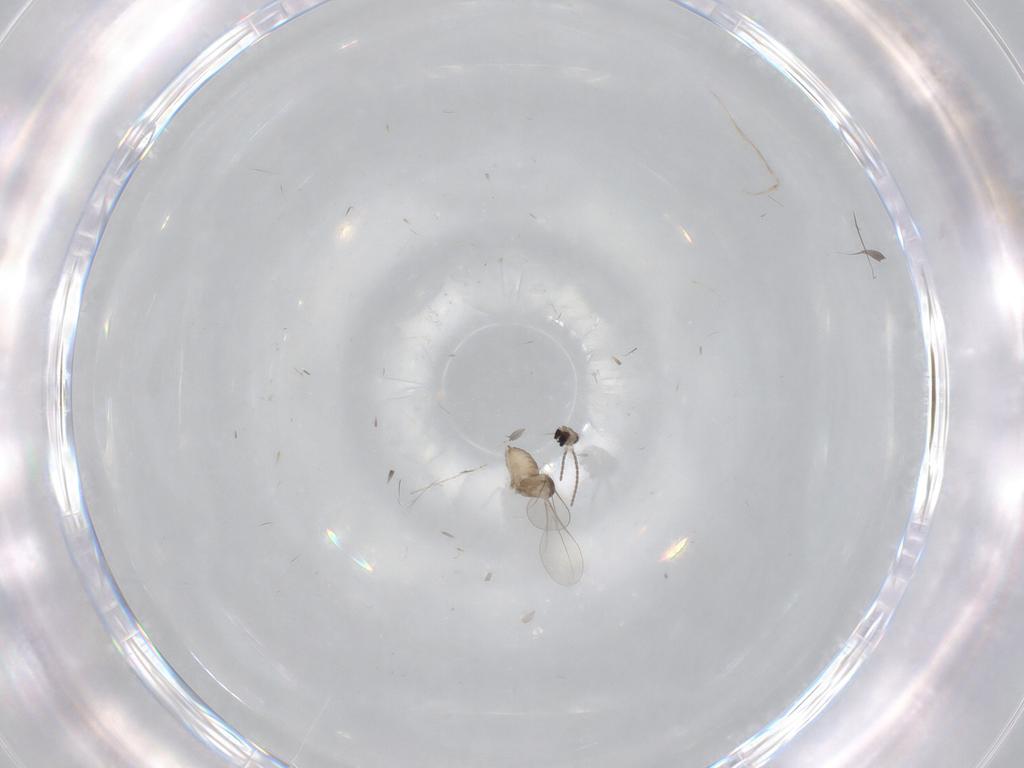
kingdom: Animalia
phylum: Arthropoda
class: Insecta
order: Diptera
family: Cecidomyiidae
